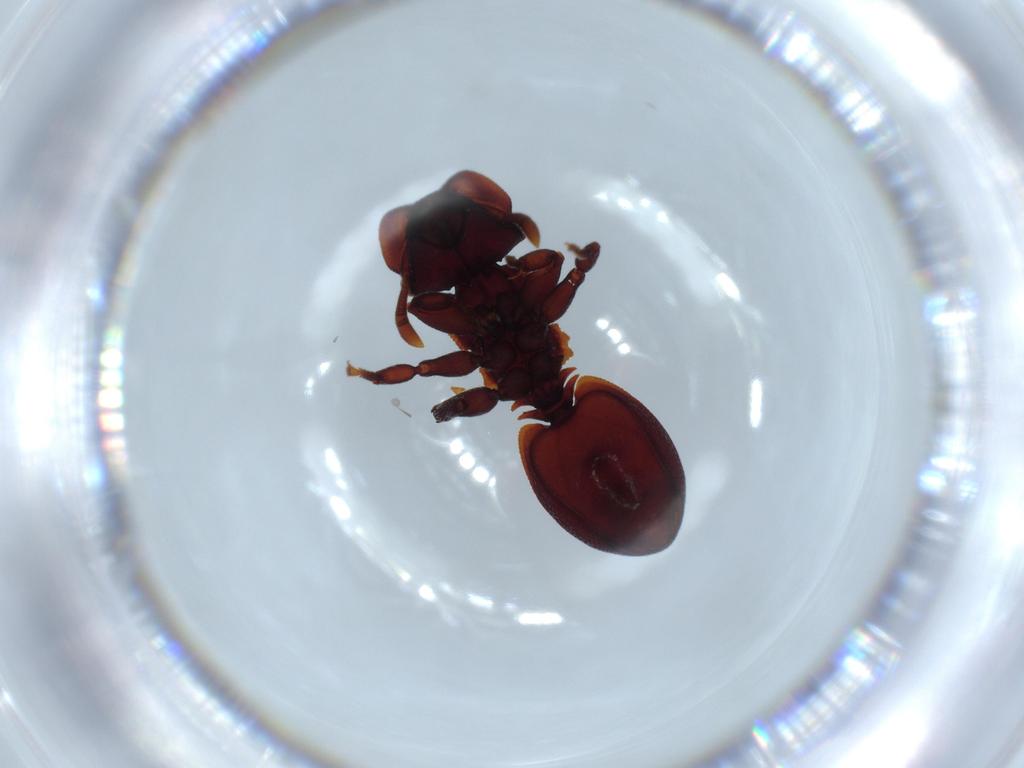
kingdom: Animalia
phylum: Arthropoda
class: Insecta
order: Hymenoptera
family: Formicidae
